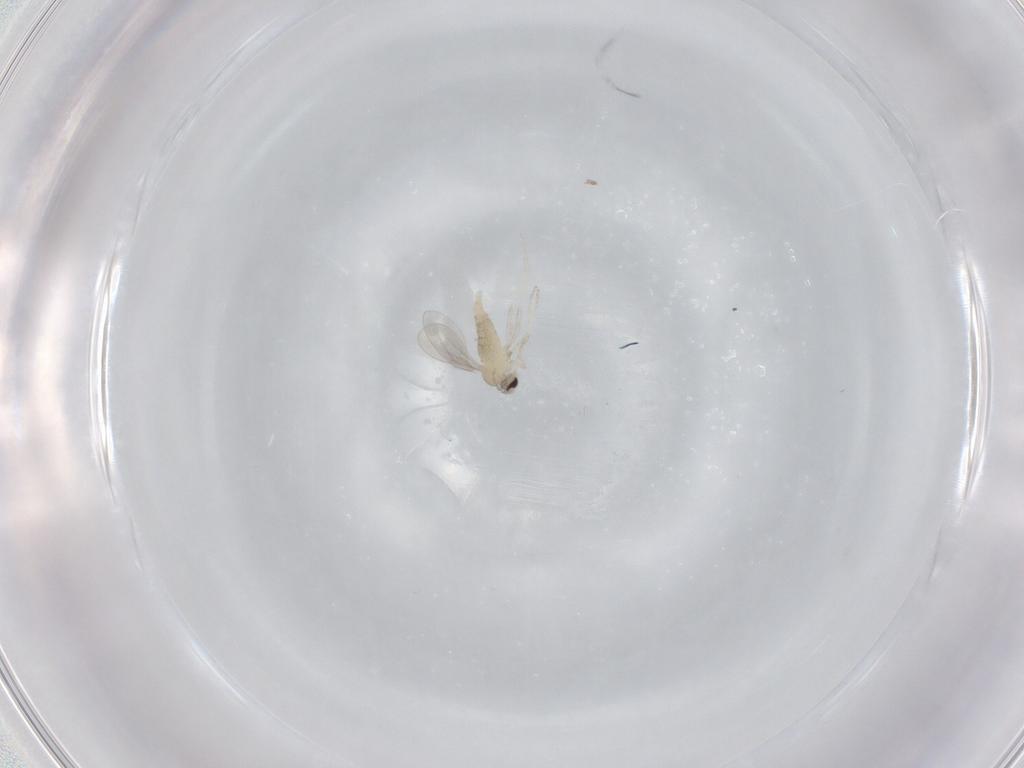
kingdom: Animalia
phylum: Arthropoda
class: Insecta
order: Diptera
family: Cecidomyiidae
